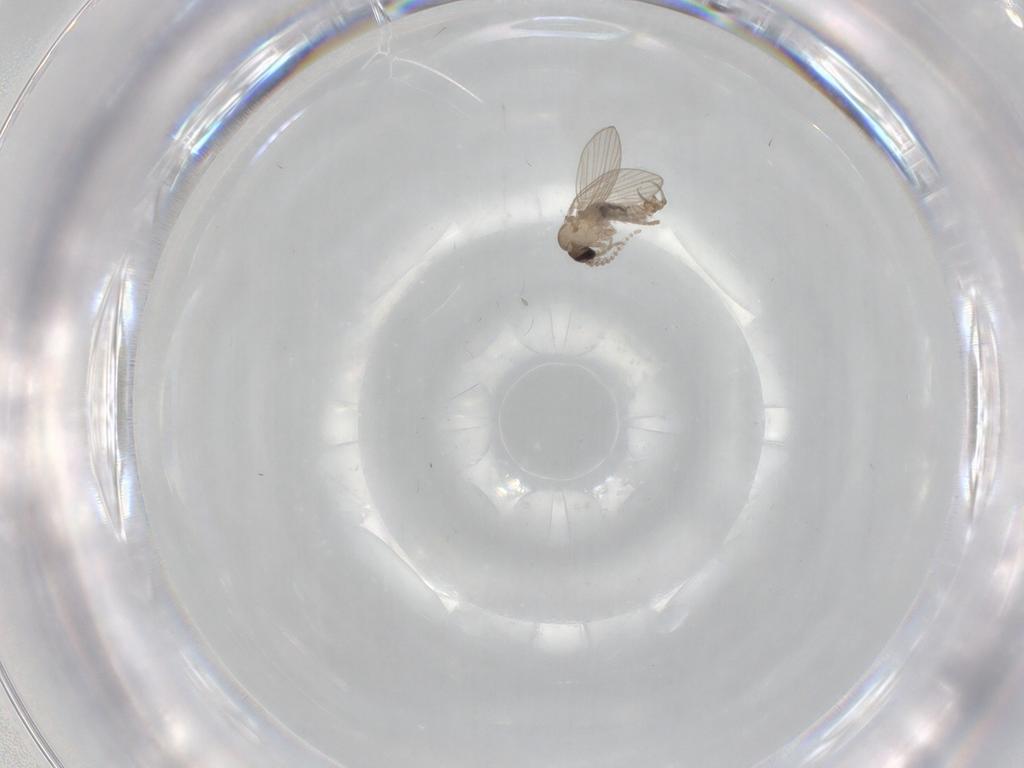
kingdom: Animalia
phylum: Arthropoda
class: Insecta
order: Diptera
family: Psychodidae
